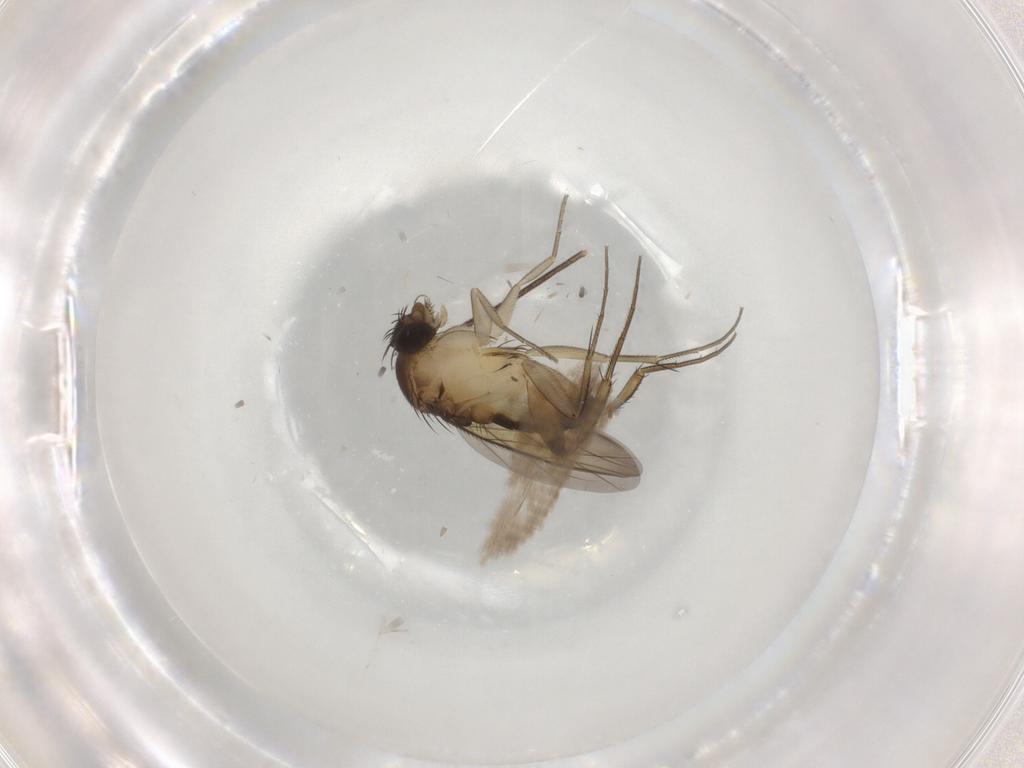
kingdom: Animalia
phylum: Arthropoda
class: Insecta
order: Diptera
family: Phoridae
